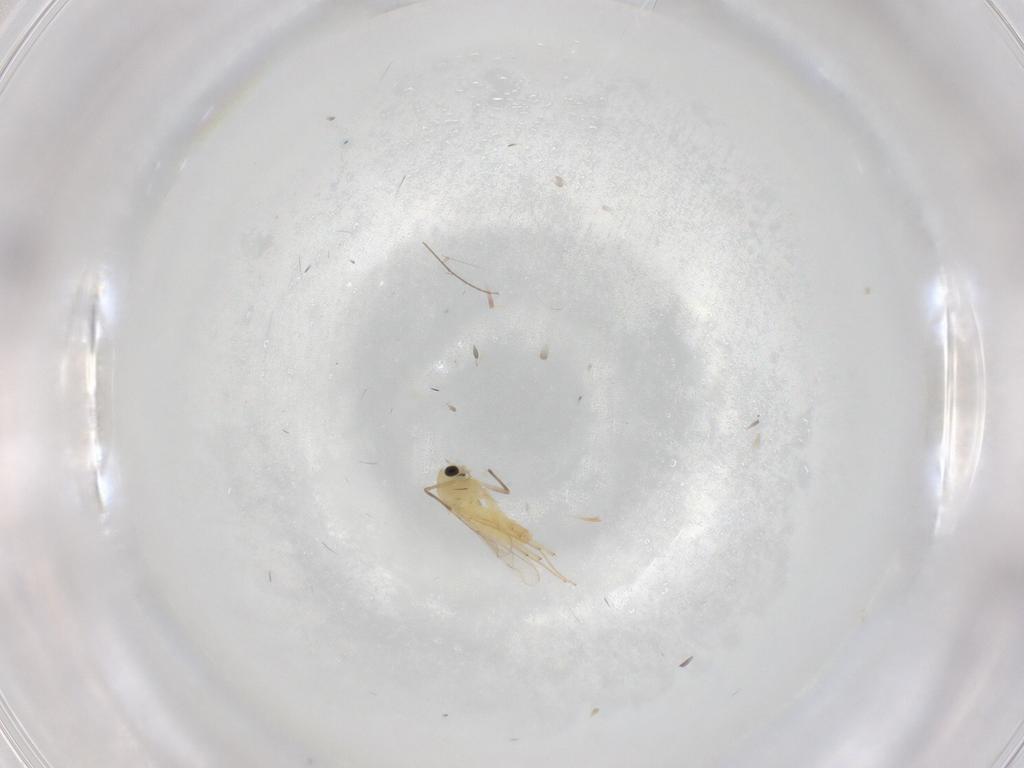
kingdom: Animalia
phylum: Arthropoda
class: Insecta
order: Diptera
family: Chironomidae
